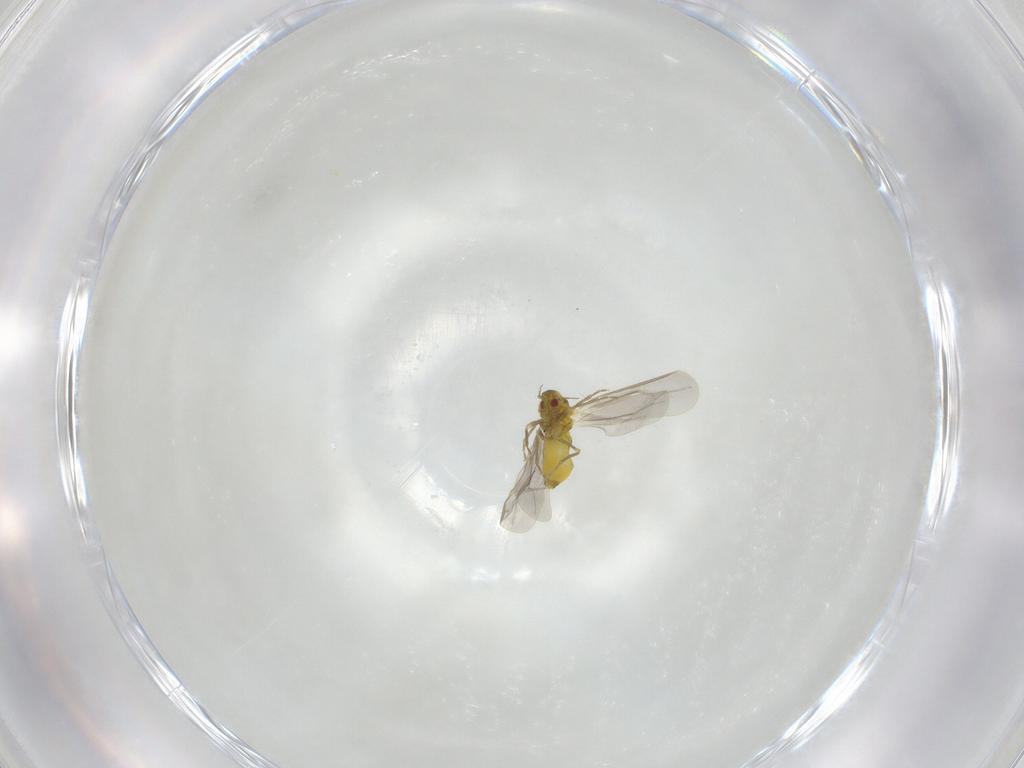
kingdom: Animalia
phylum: Arthropoda
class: Insecta
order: Hemiptera
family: Aleyrodidae
